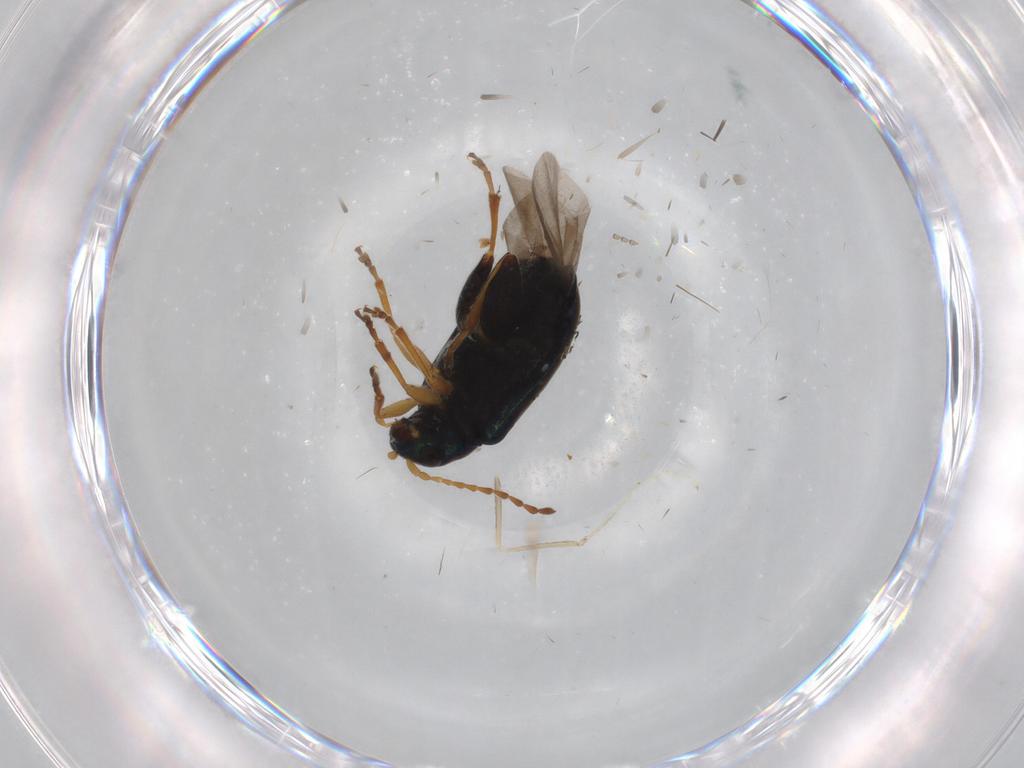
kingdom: Animalia
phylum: Arthropoda
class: Insecta
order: Coleoptera
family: Chrysomelidae
